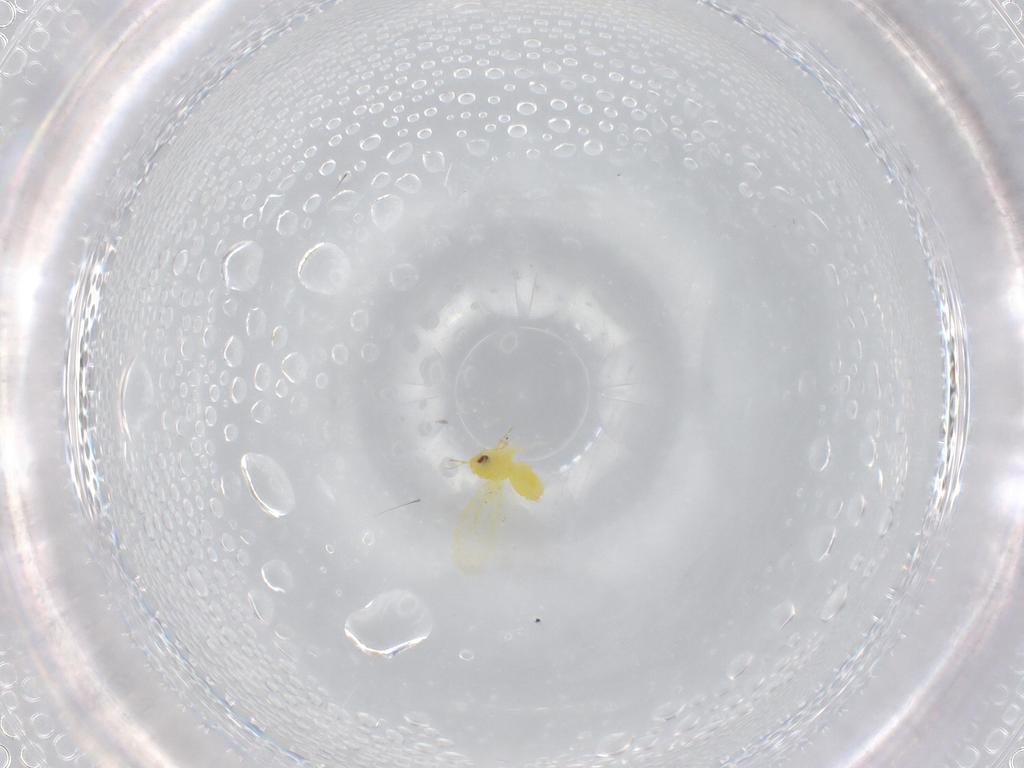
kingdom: Animalia
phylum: Arthropoda
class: Insecta
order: Hemiptera
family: Aleyrodidae
